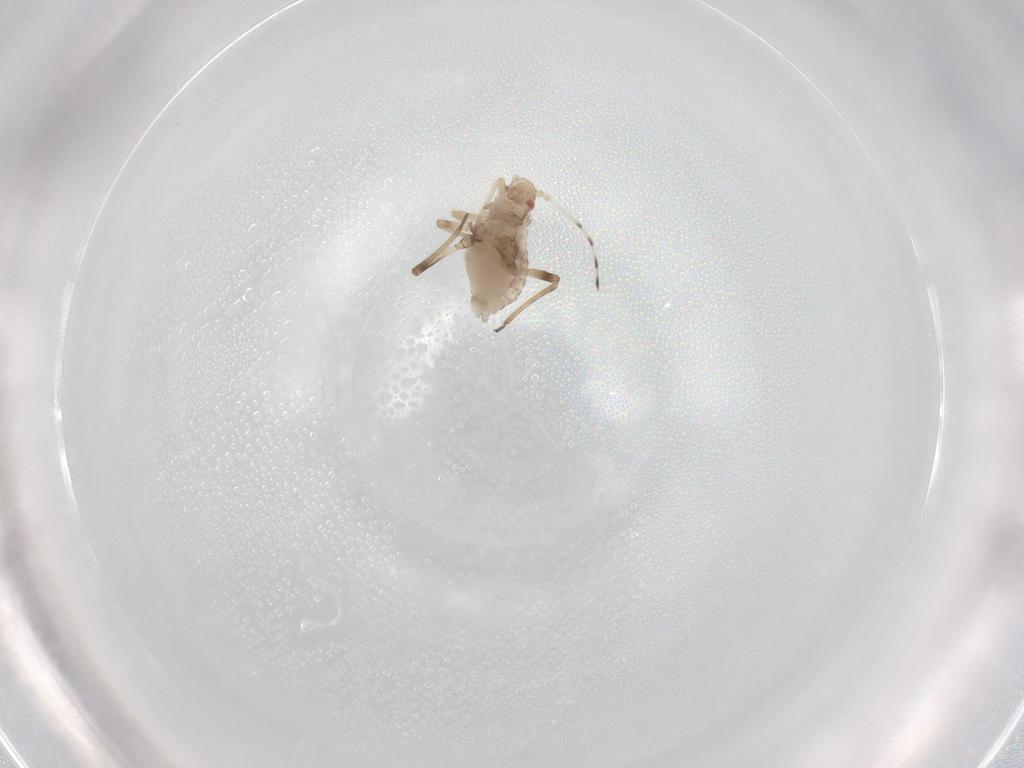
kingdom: Animalia
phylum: Arthropoda
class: Insecta
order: Hemiptera
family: Aphididae
